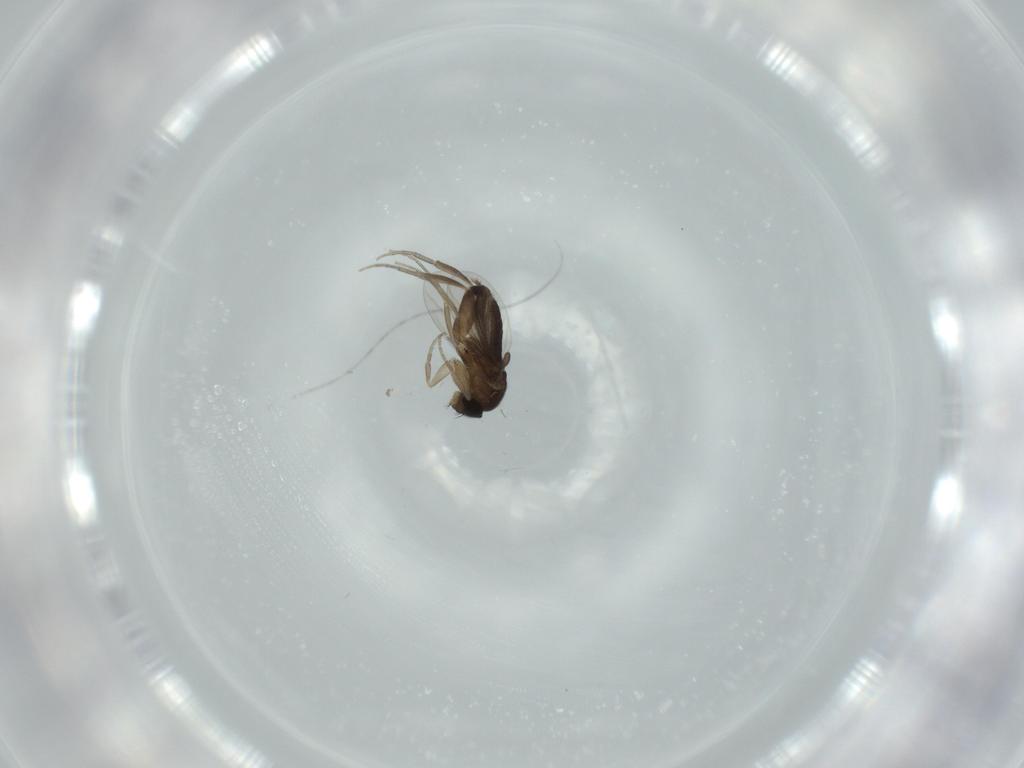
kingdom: Animalia
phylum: Arthropoda
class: Insecta
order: Diptera
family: Phoridae
